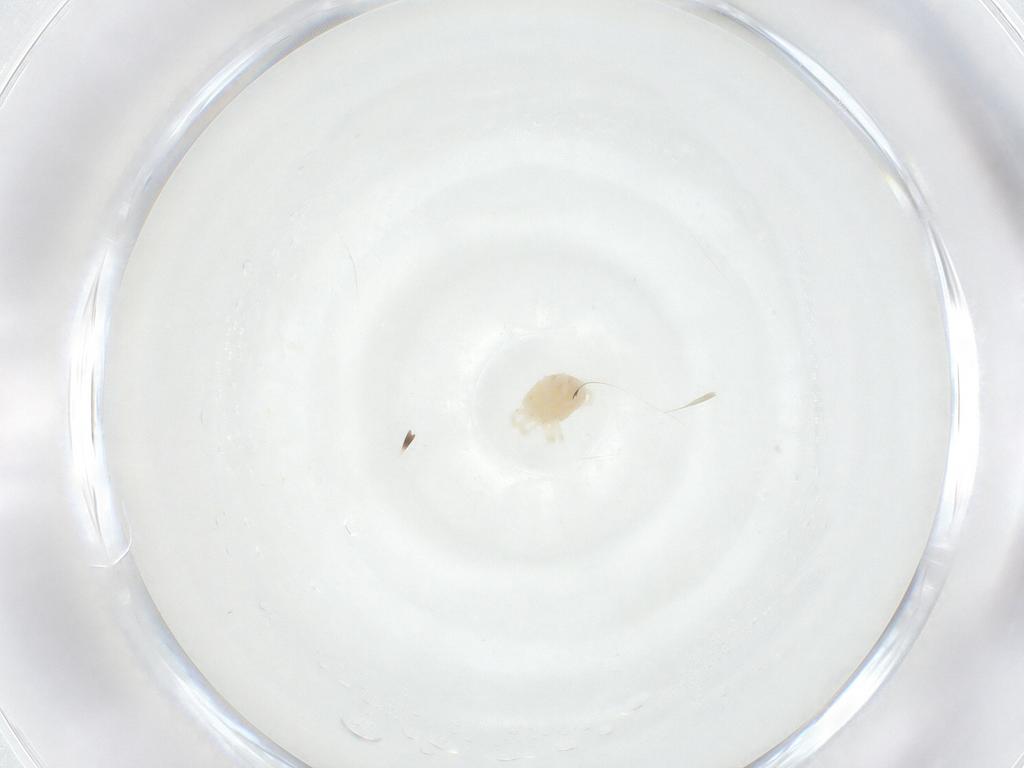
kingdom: Animalia
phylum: Arthropoda
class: Arachnida
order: Trombidiformes
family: Anystidae
